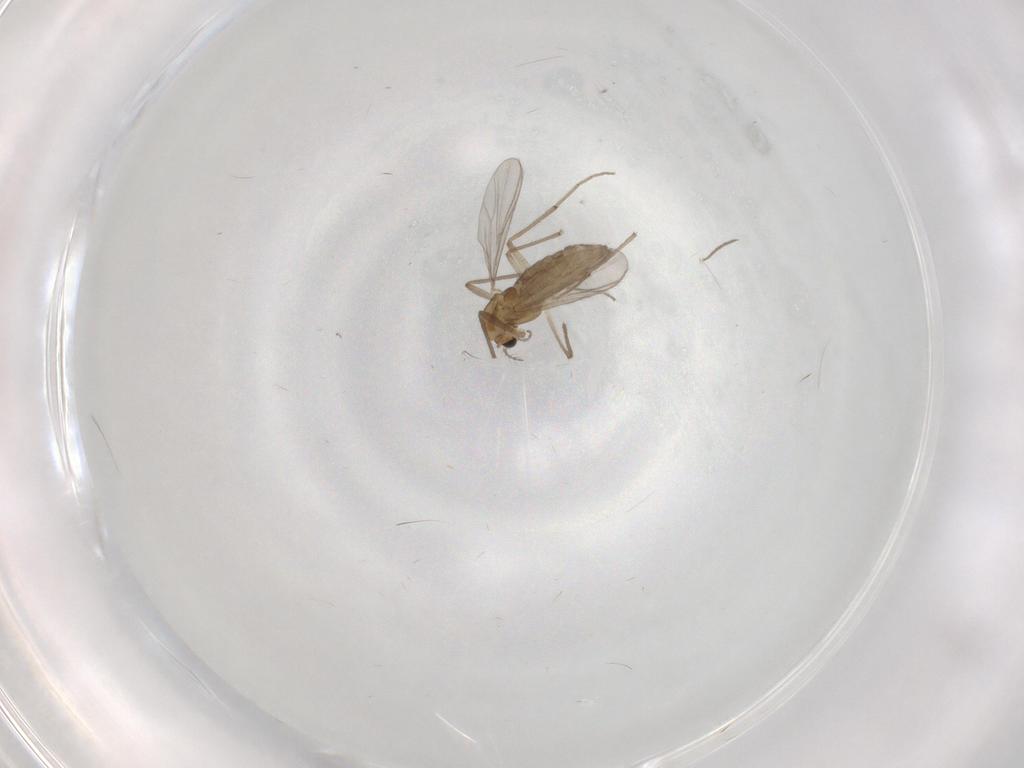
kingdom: Animalia
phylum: Arthropoda
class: Insecta
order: Diptera
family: Chironomidae
